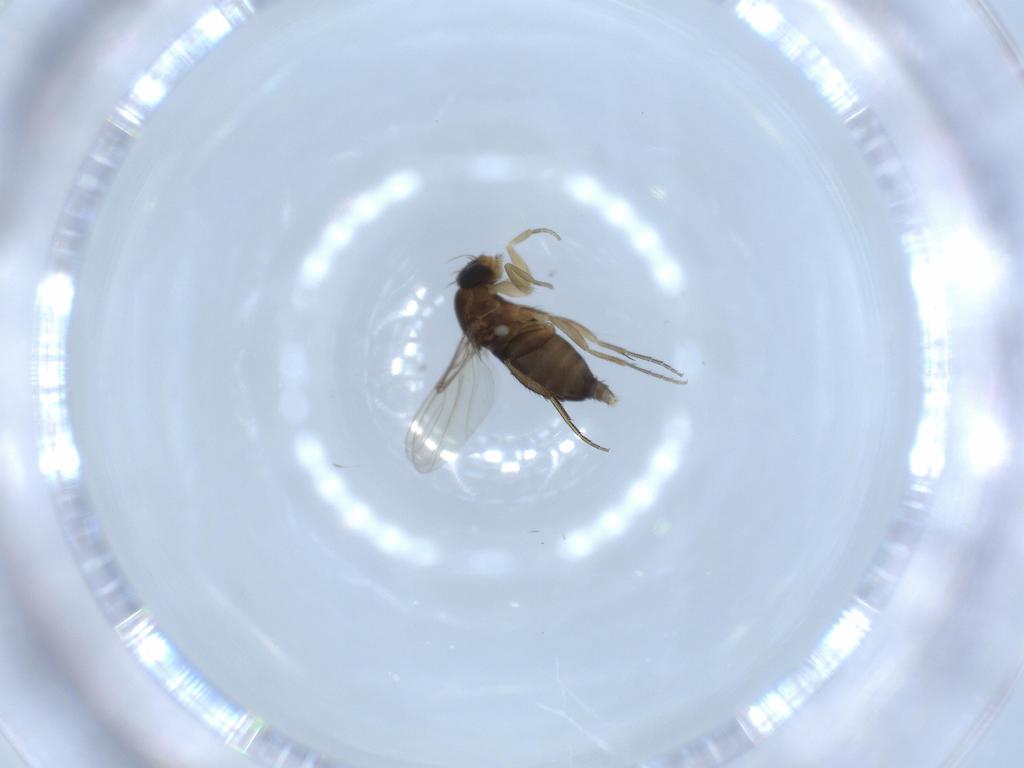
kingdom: Animalia
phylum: Arthropoda
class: Insecta
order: Diptera
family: Phoridae
